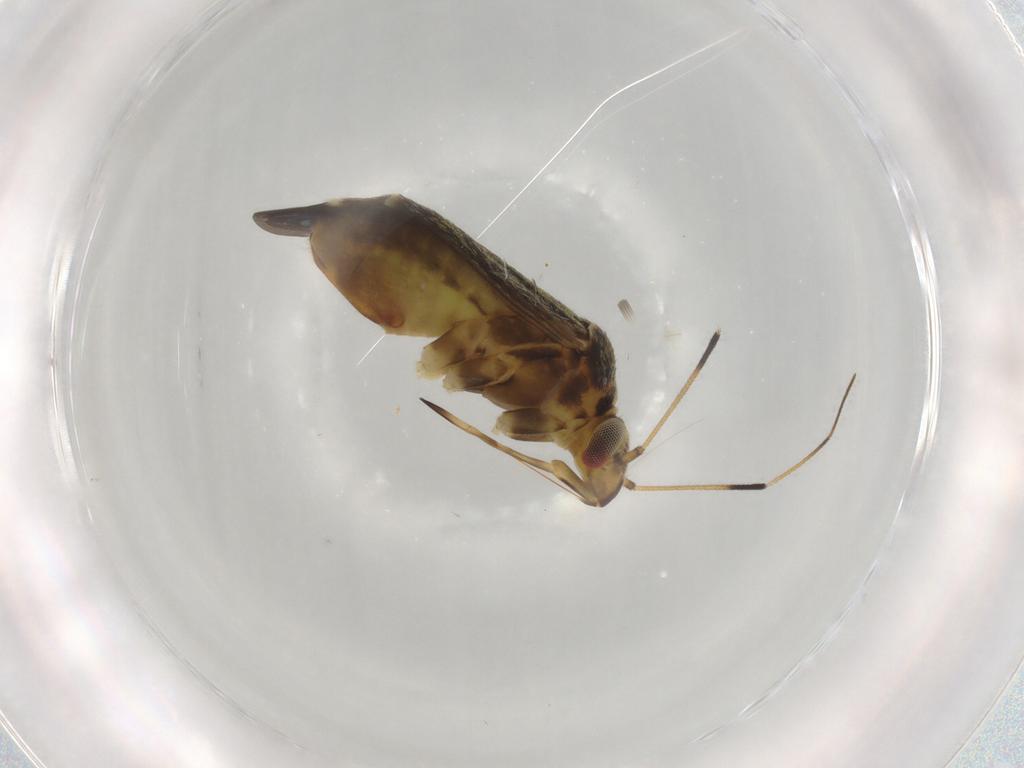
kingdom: Animalia
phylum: Arthropoda
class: Insecta
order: Hemiptera
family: Miridae
